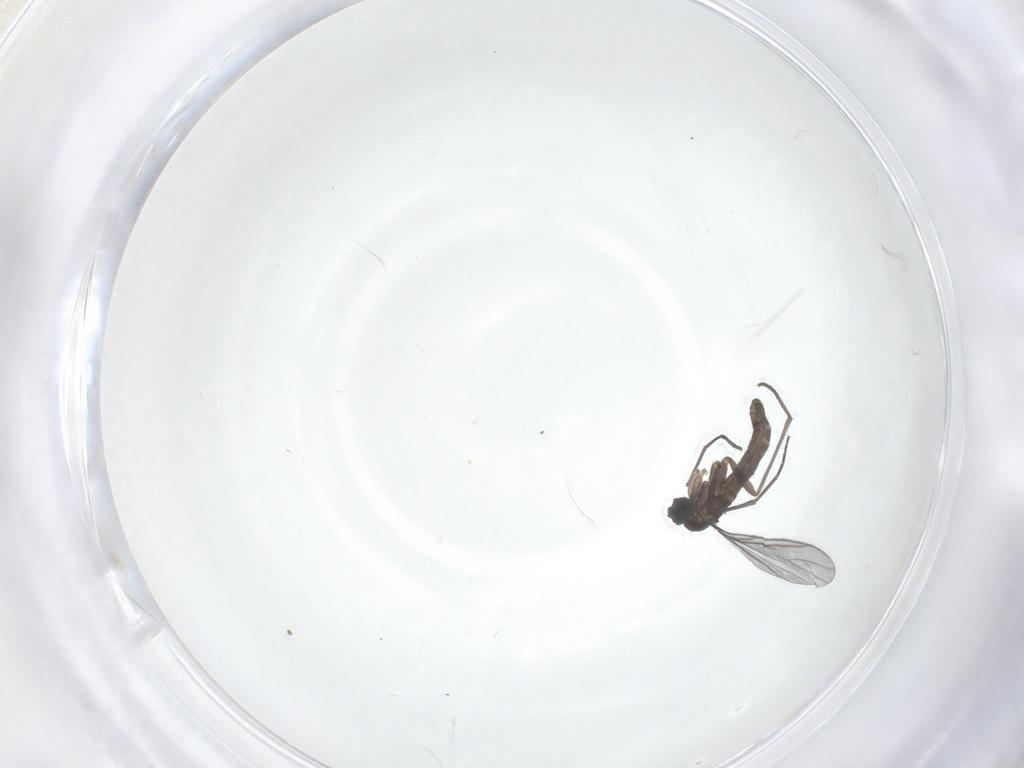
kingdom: Animalia
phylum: Arthropoda
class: Insecta
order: Diptera
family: Sciaridae
